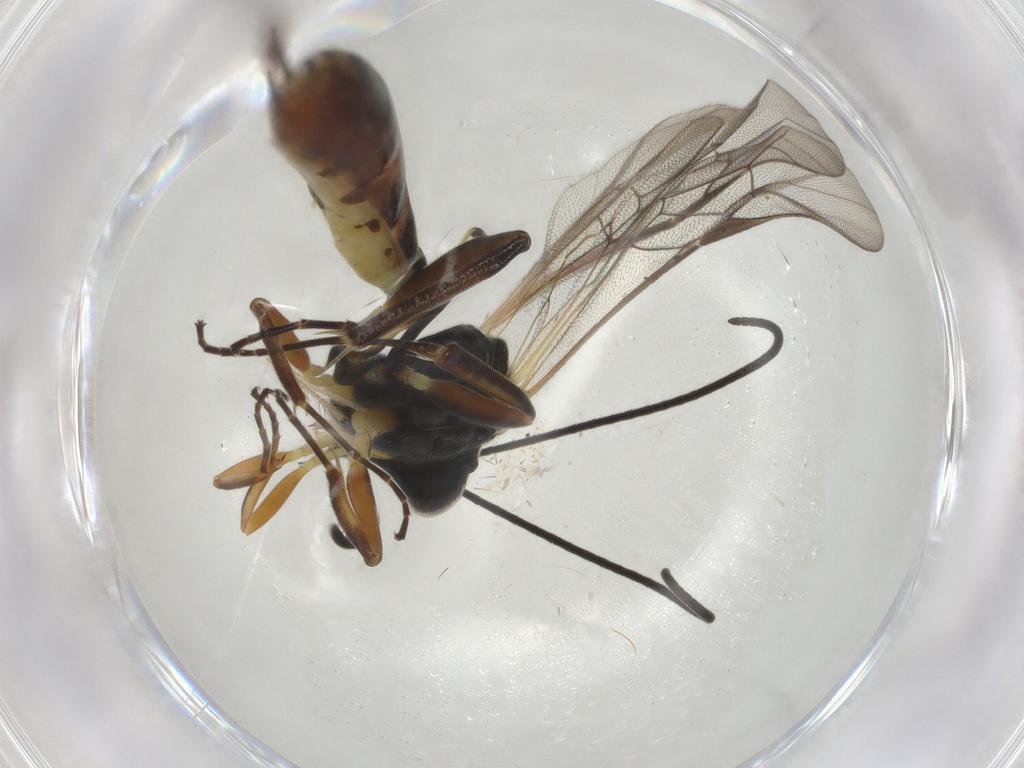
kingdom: Animalia
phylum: Arthropoda
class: Insecta
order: Hymenoptera
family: Ichneumonidae
